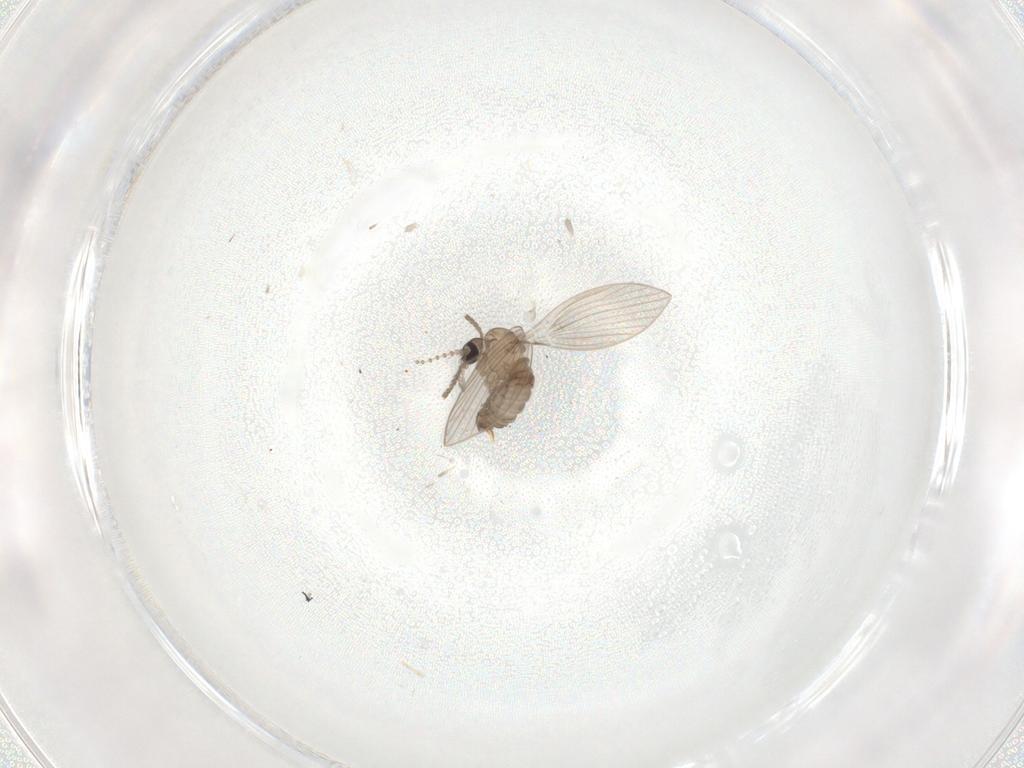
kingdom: Animalia
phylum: Arthropoda
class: Insecta
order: Diptera
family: Psychodidae
